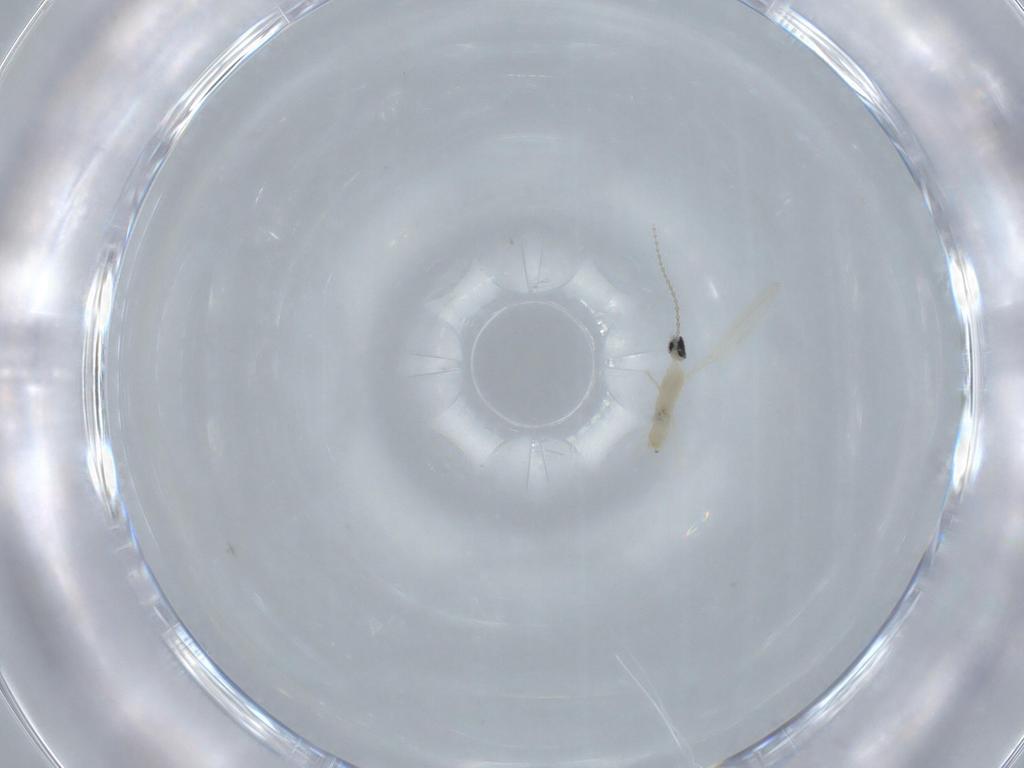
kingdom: Animalia
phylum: Arthropoda
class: Insecta
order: Diptera
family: Cecidomyiidae
